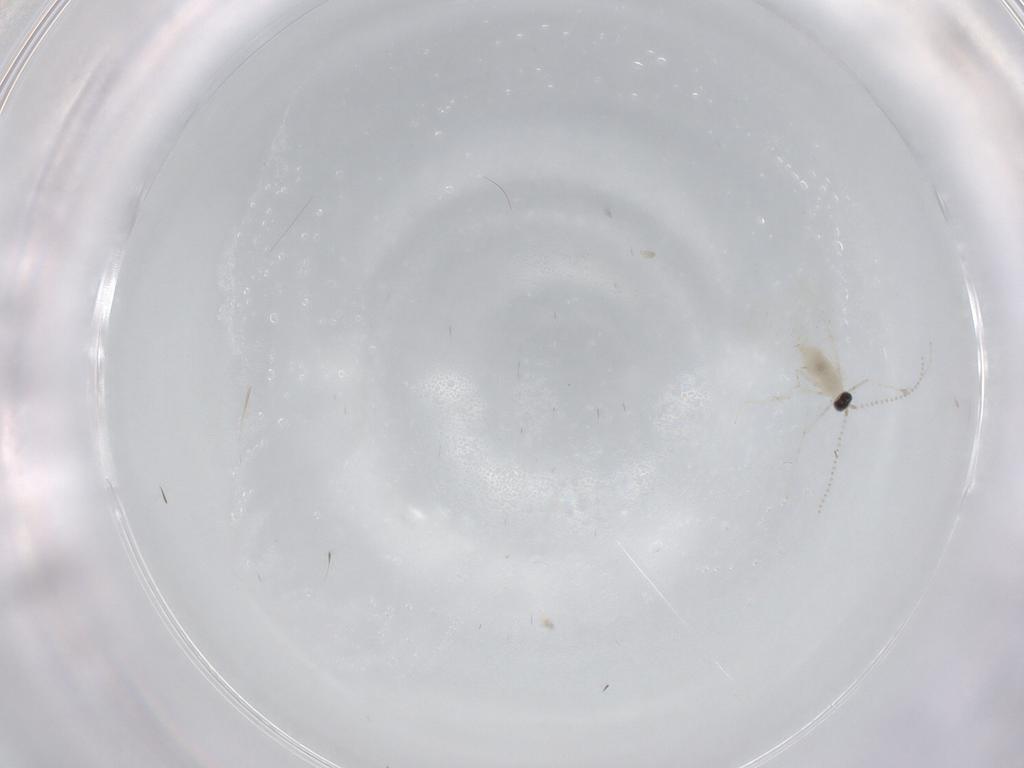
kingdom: Animalia
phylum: Arthropoda
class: Insecta
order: Diptera
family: Cecidomyiidae
